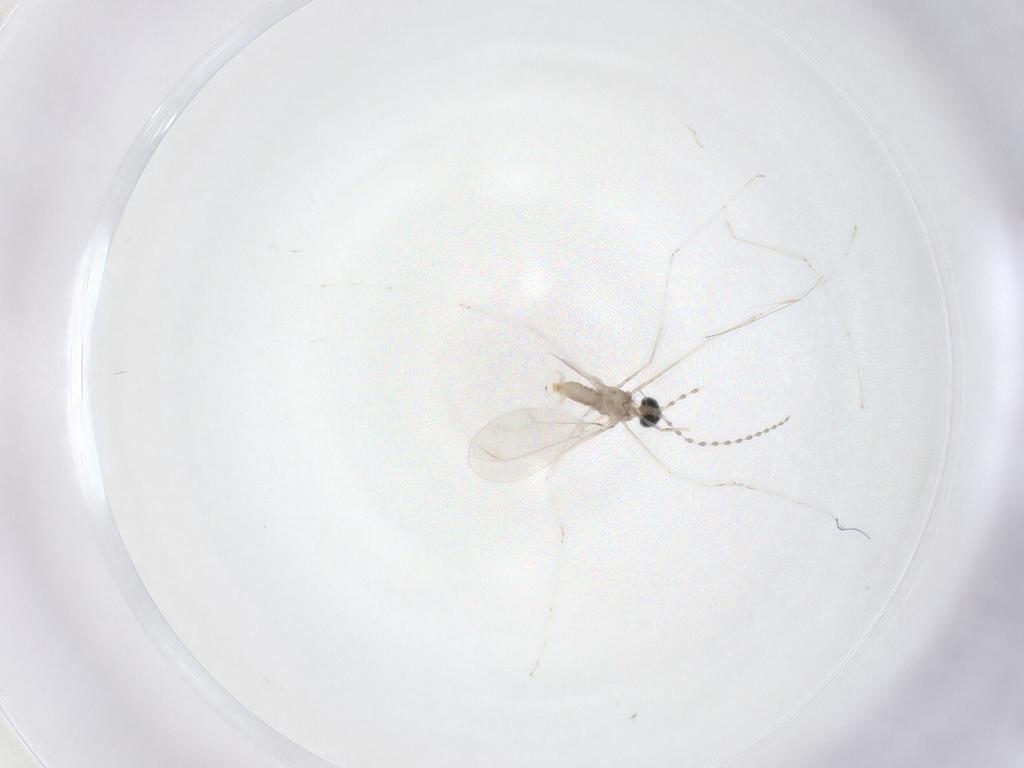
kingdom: Animalia
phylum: Arthropoda
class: Insecta
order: Diptera
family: Cecidomyiidae
